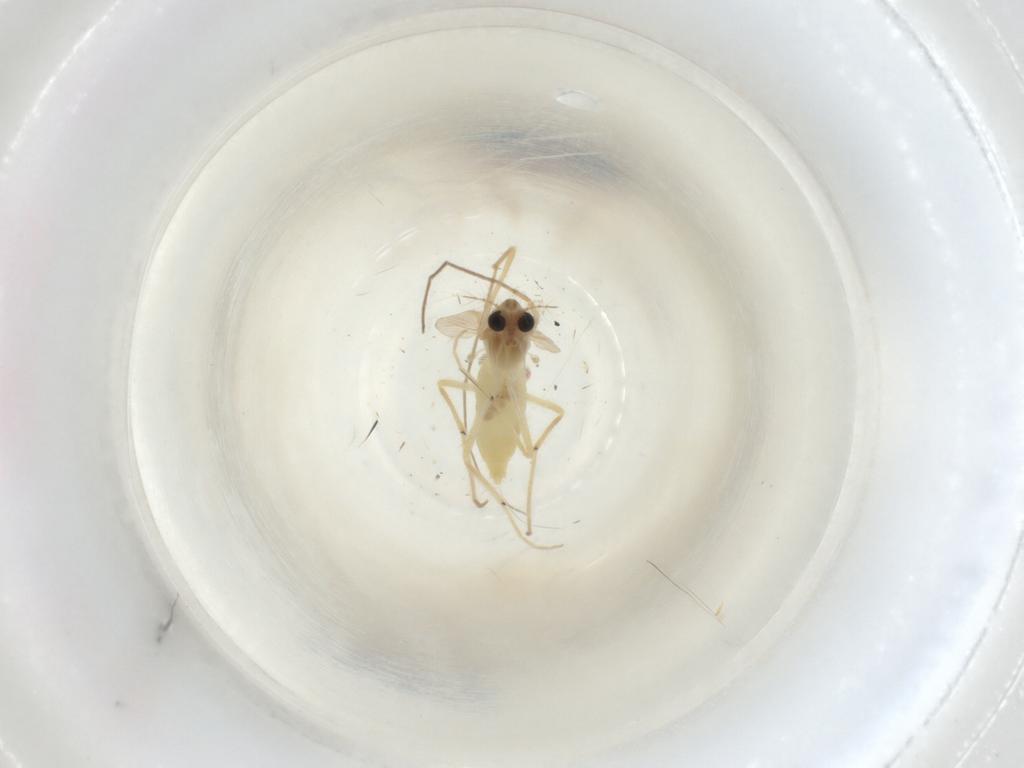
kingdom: Animalia
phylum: Arthropoda
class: Insecta
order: Diptera
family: Chironomidae
